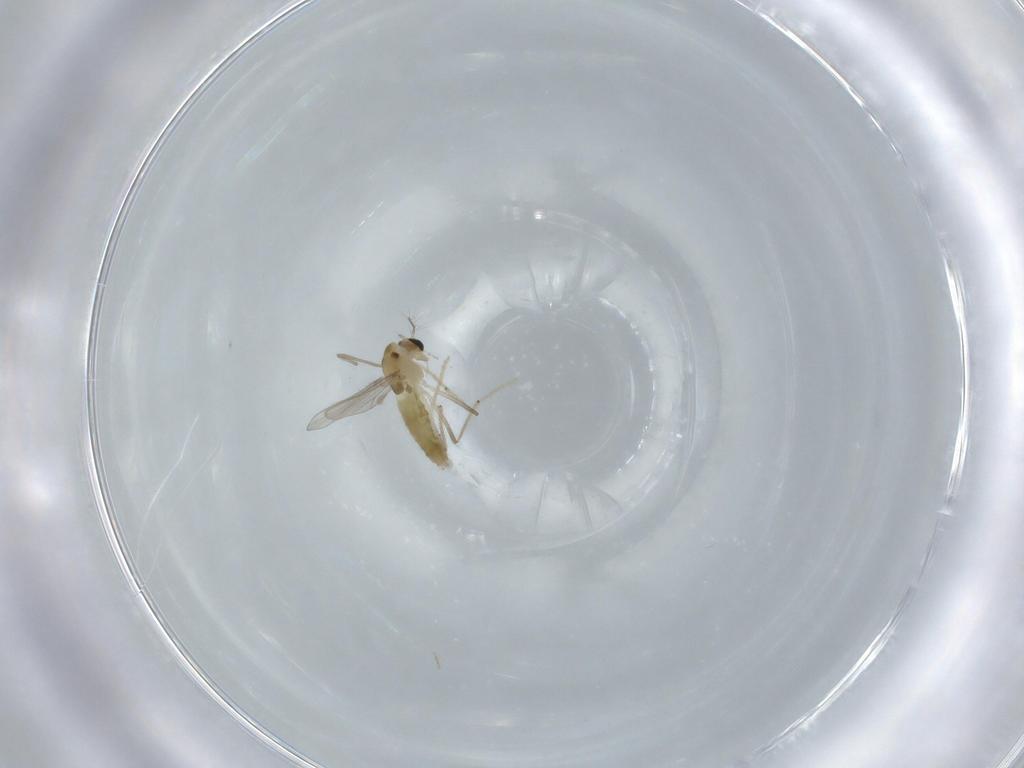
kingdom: Animalia
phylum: Arthropoda
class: Insecta
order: Diptera
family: Chironomidae
